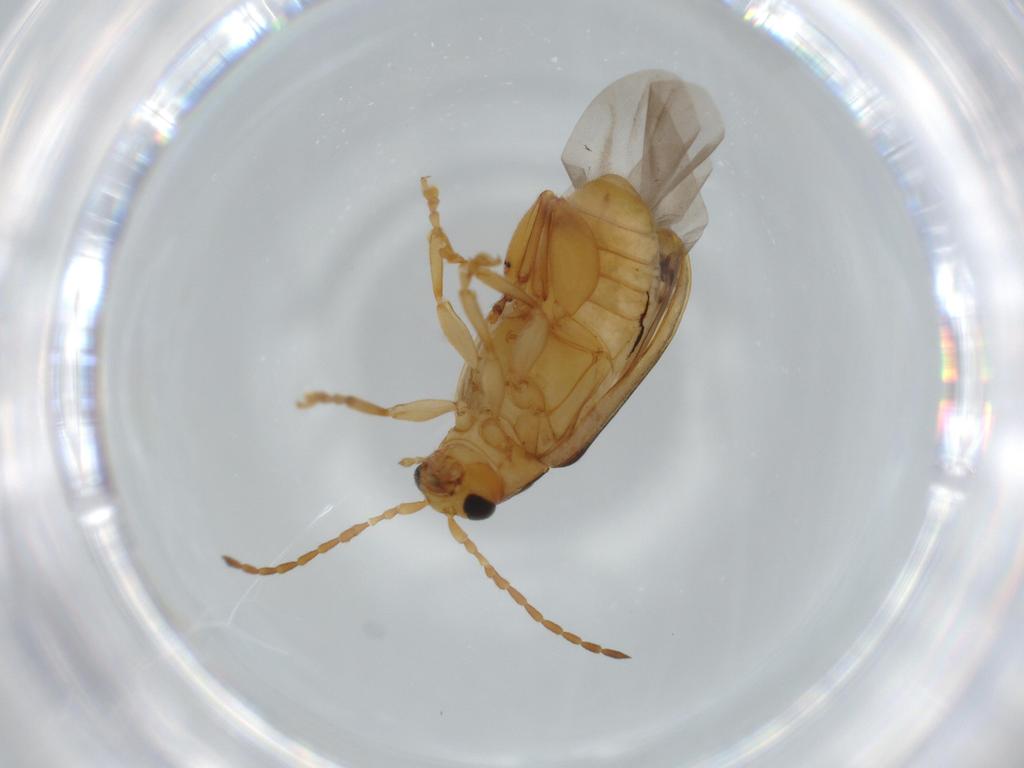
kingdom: Animalia
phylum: Arthropoda
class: Insecta
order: Coleoptera
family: Chrysomelidae
